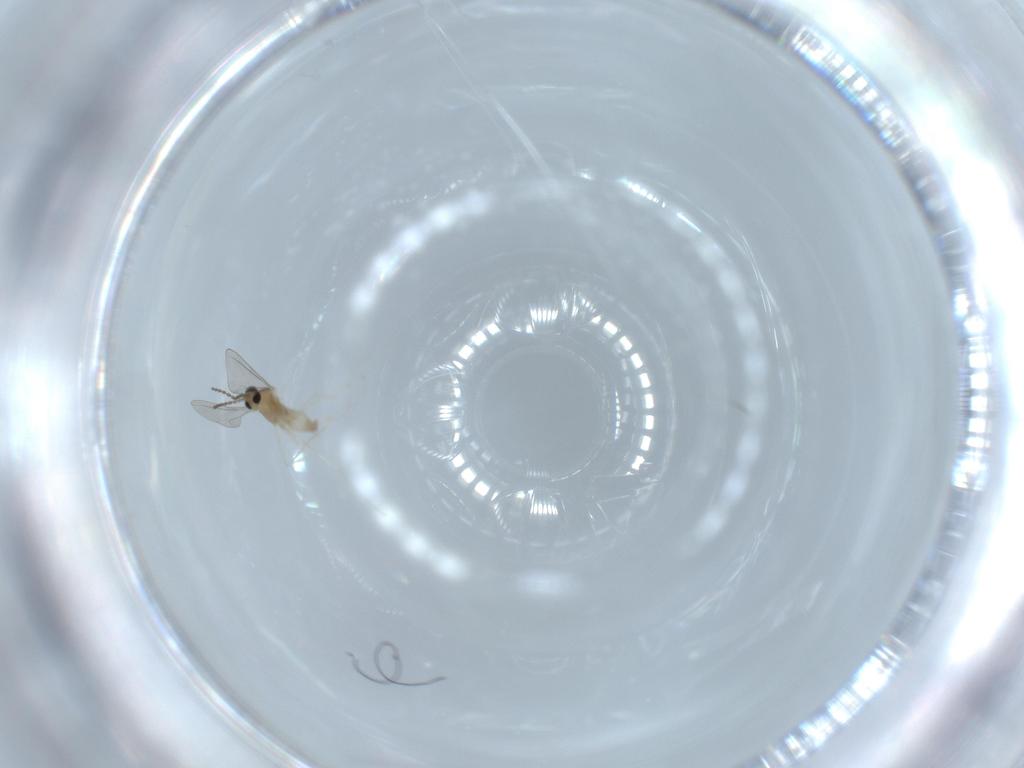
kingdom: Animalia
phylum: Arthropoda
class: Insecta
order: Diptera
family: Cecidomyiidae
